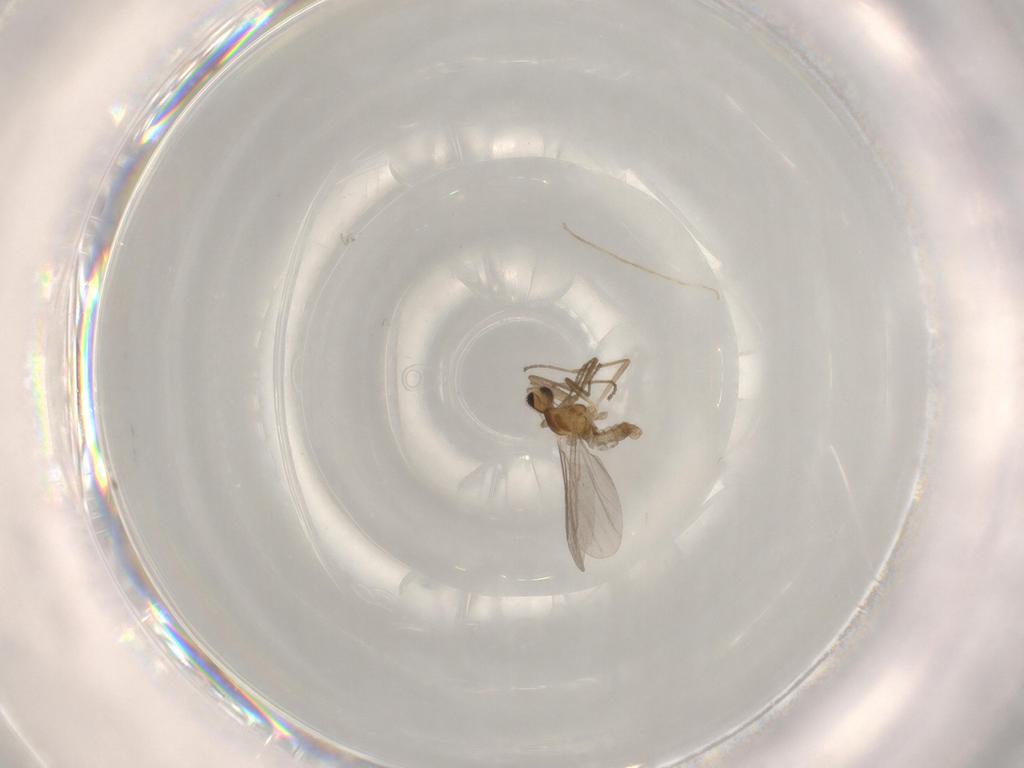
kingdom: Animalia
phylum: Arthropoda
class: Insecta
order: Diptera
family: Cecidomyiidae
